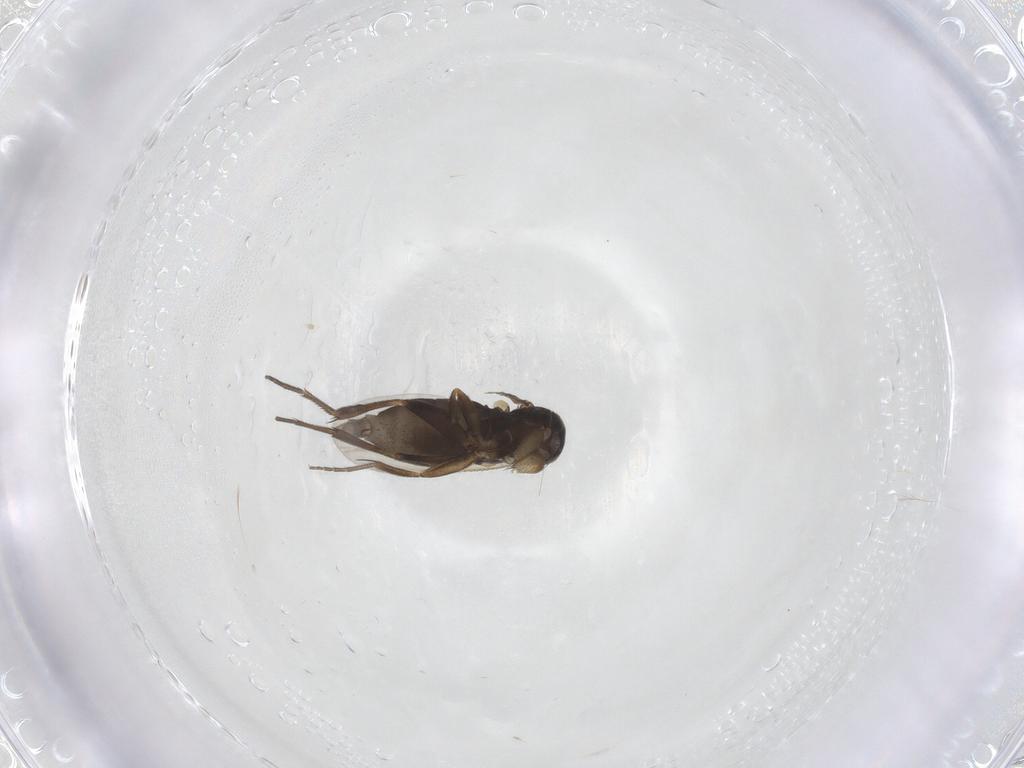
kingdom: Animalia
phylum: Arthropoda
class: Insecta
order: Diptera
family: Phoridae
